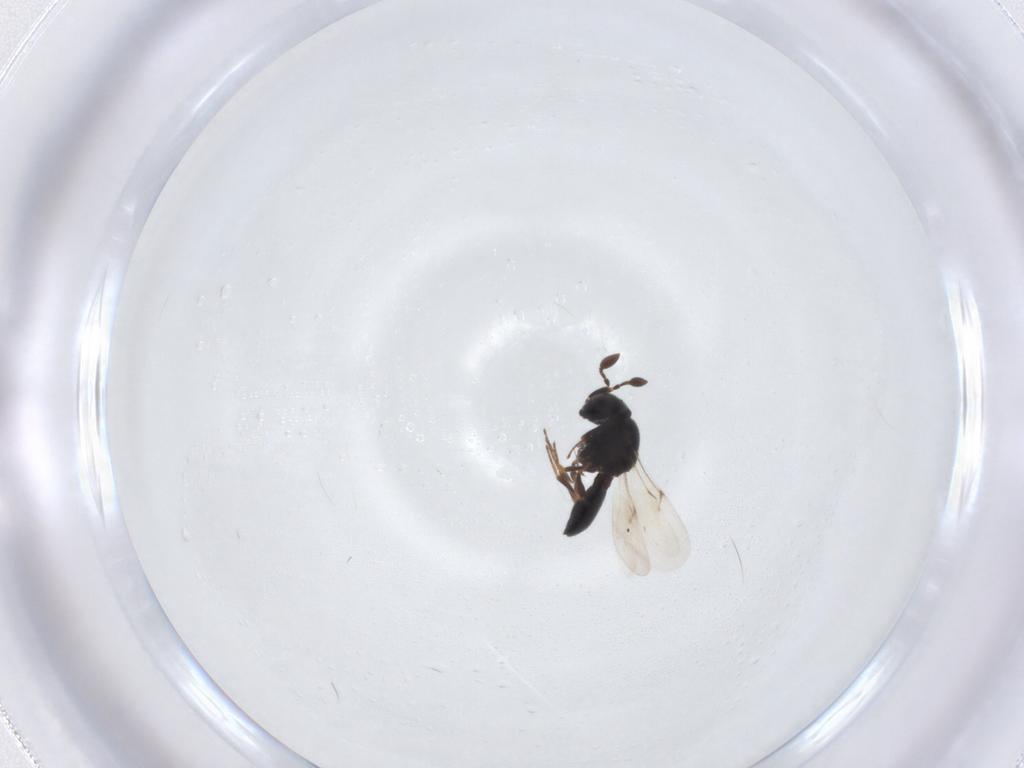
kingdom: Animalia
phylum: Arthropoda
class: Insecta
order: Hymenoptera
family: Scelionidae
